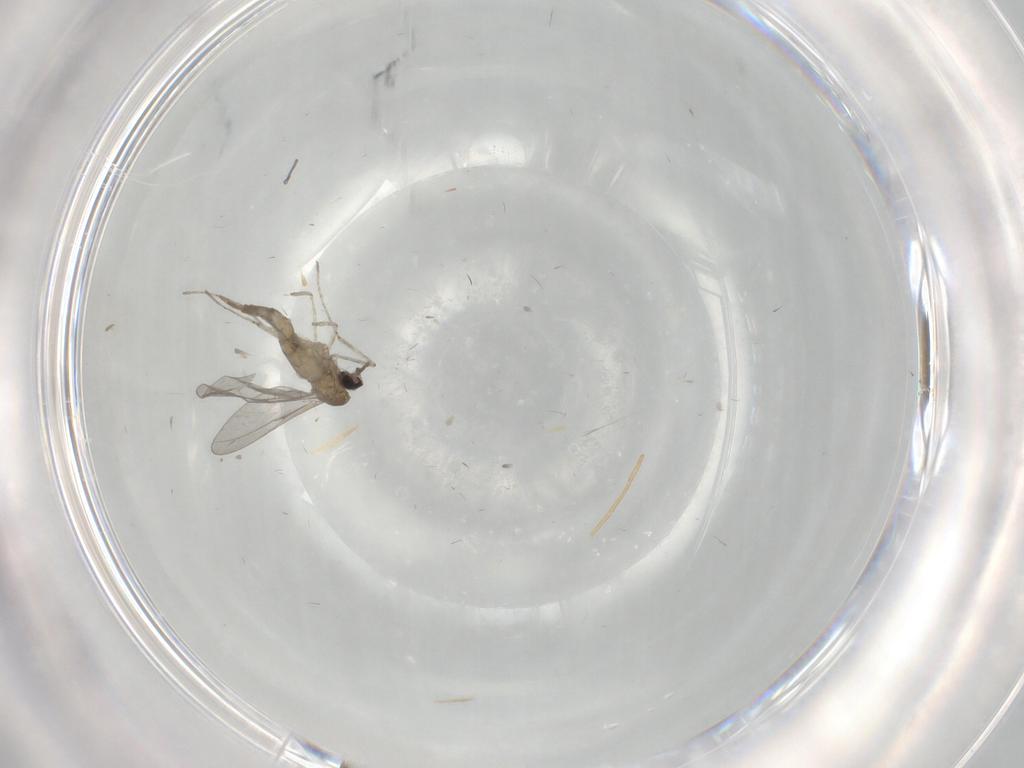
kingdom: Animalia
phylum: Arthropoda
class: Insecta
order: Diptera
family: Cecidomyiidae
